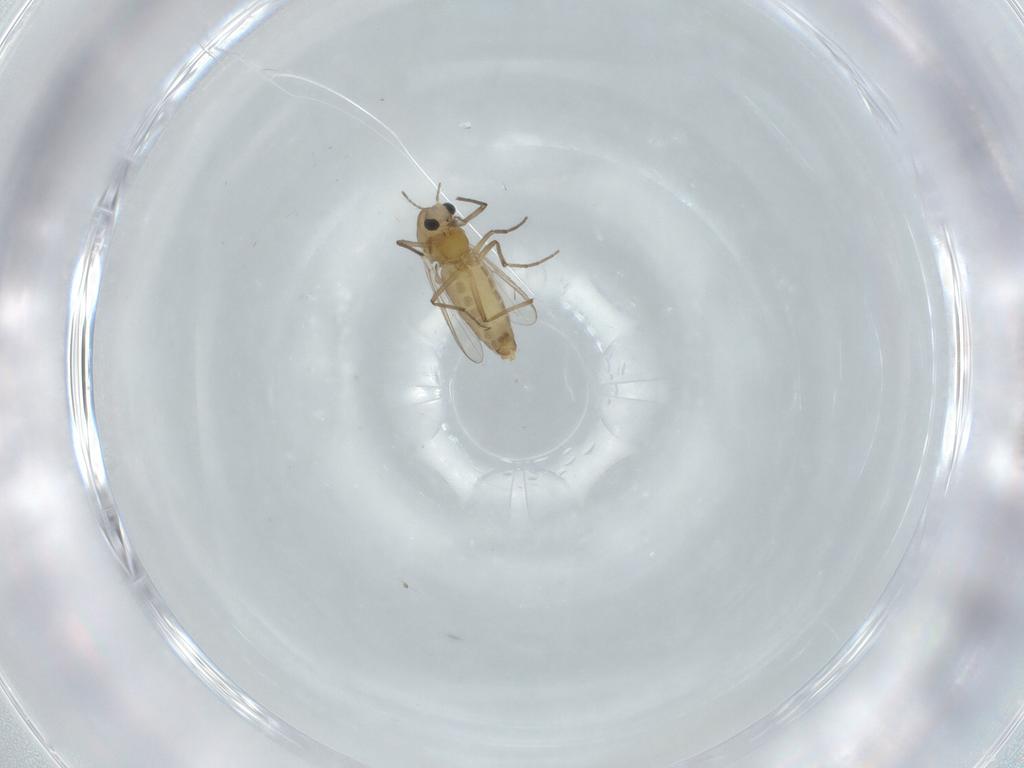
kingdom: Animalia
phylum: Arthropoda
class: Insecta
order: Diptera
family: Chironomidae
